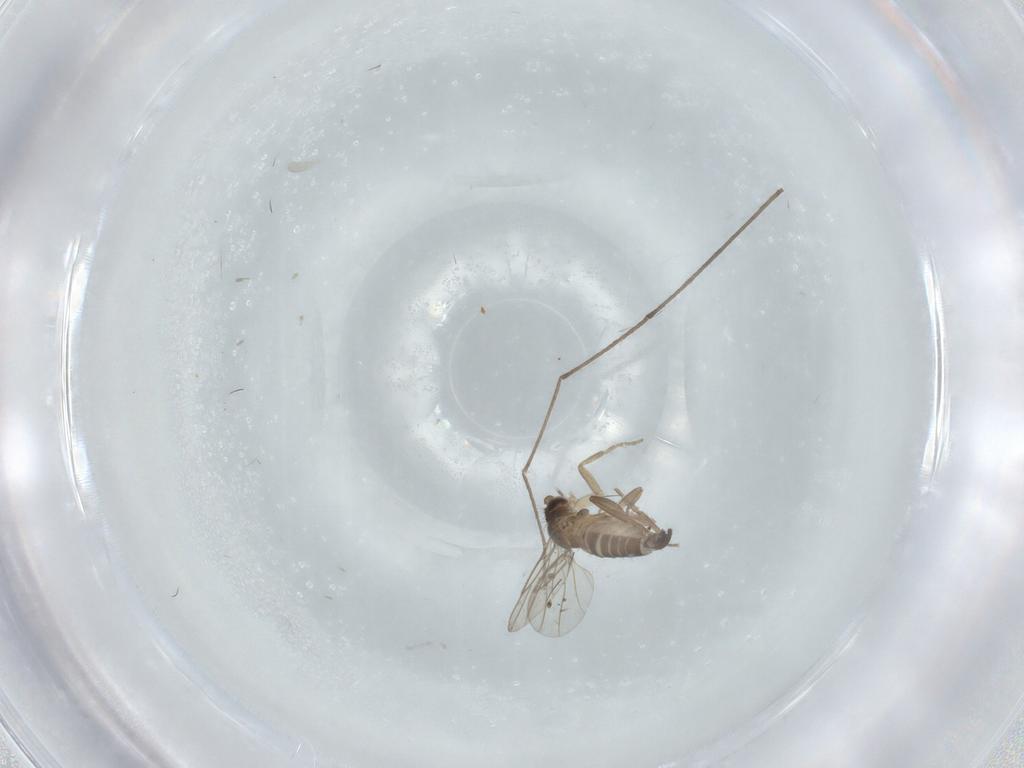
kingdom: Animalia
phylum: Arthropoda
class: Insecta
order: Diptera
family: Phoridae
